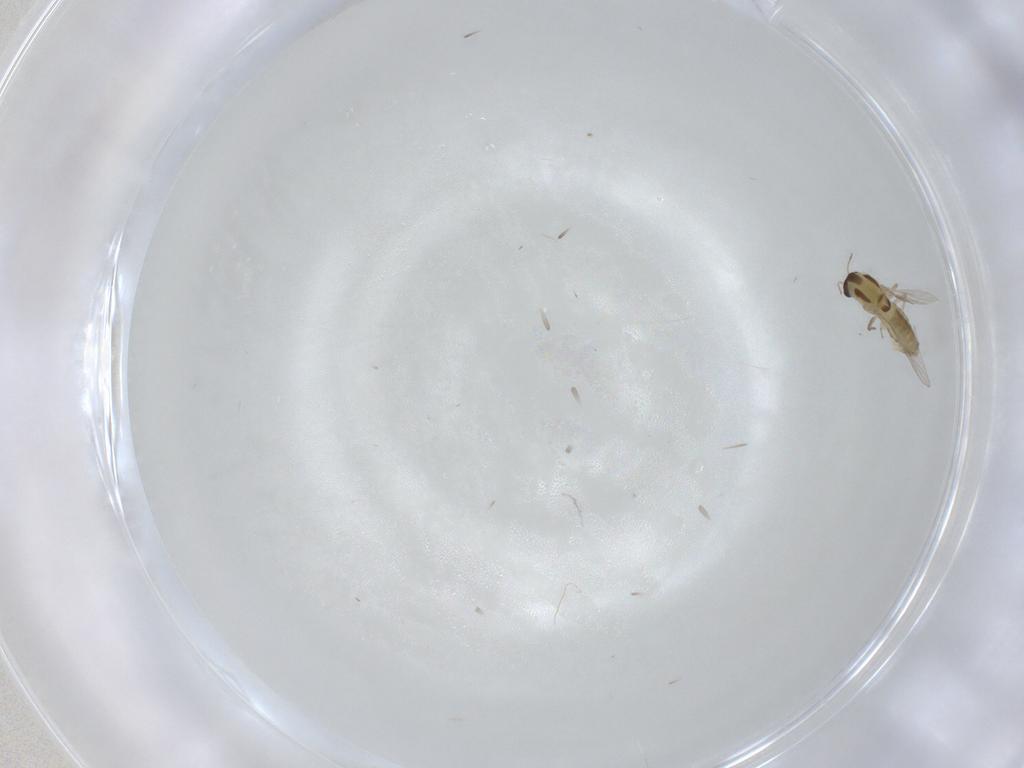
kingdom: Animalia
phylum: Arthropoda
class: Insecta
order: Diptera
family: Chironomidae
